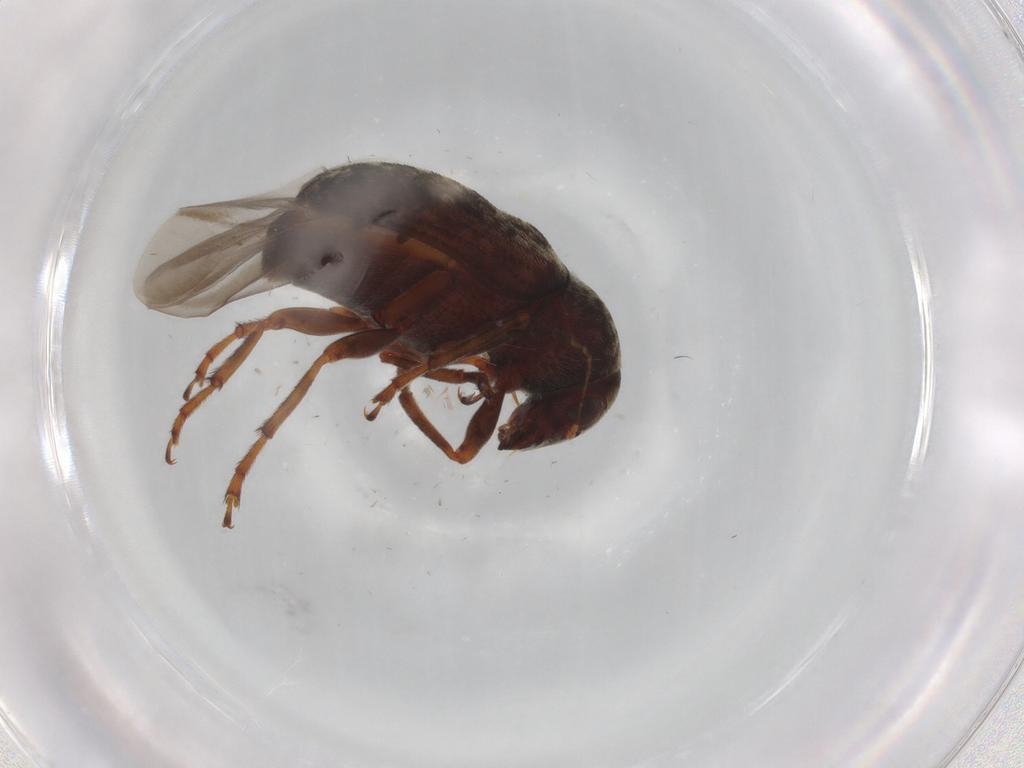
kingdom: Animalia
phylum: Arthropoda
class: Insecta
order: Coleoptera
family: Anthribidae
